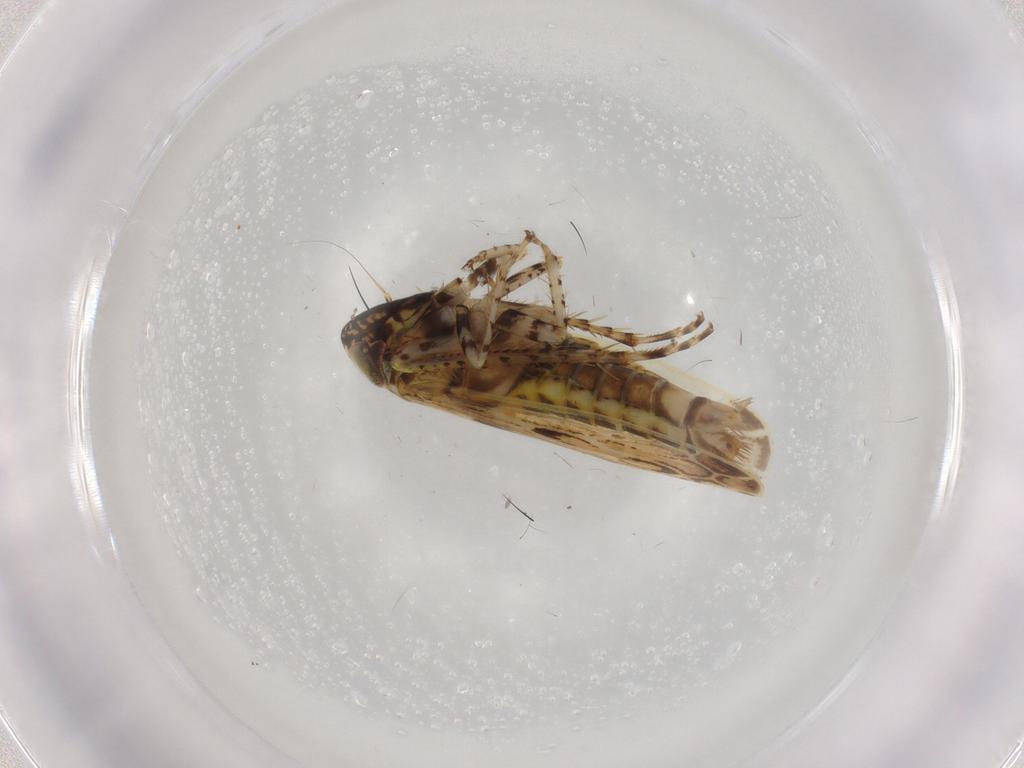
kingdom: Animalia
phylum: Arthropoda
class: Insecta
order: Hemiptera
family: Cicadellidae
